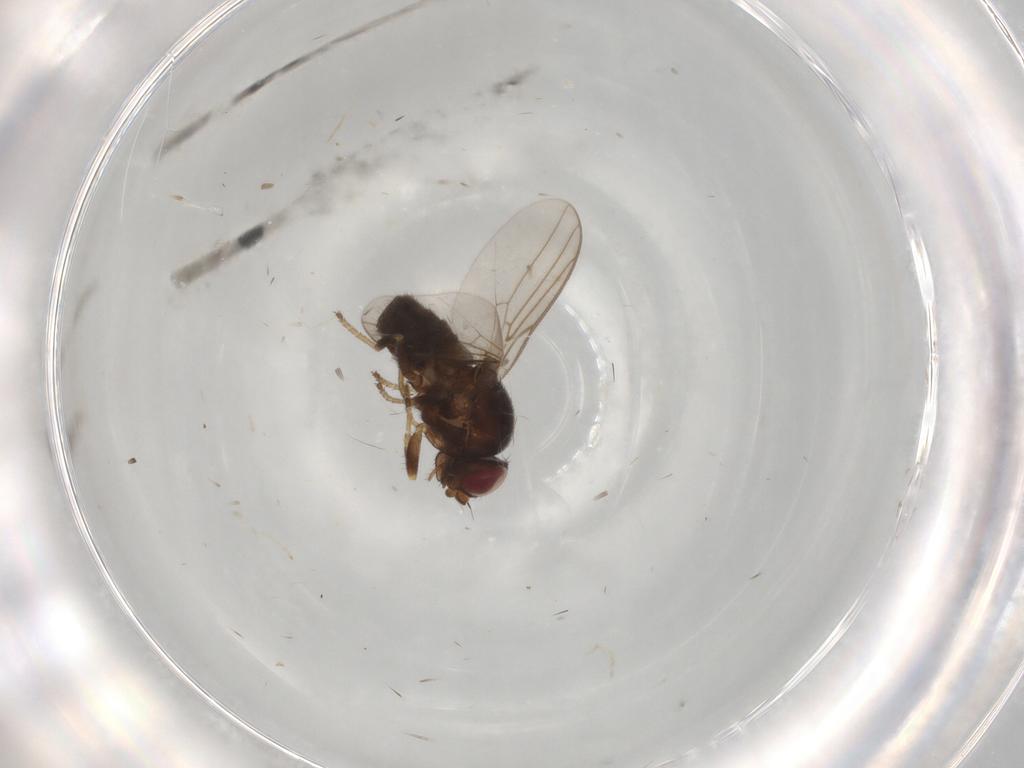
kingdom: Animalia
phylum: Arthropoda
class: Insecta
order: Diptera
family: Chloropidae
